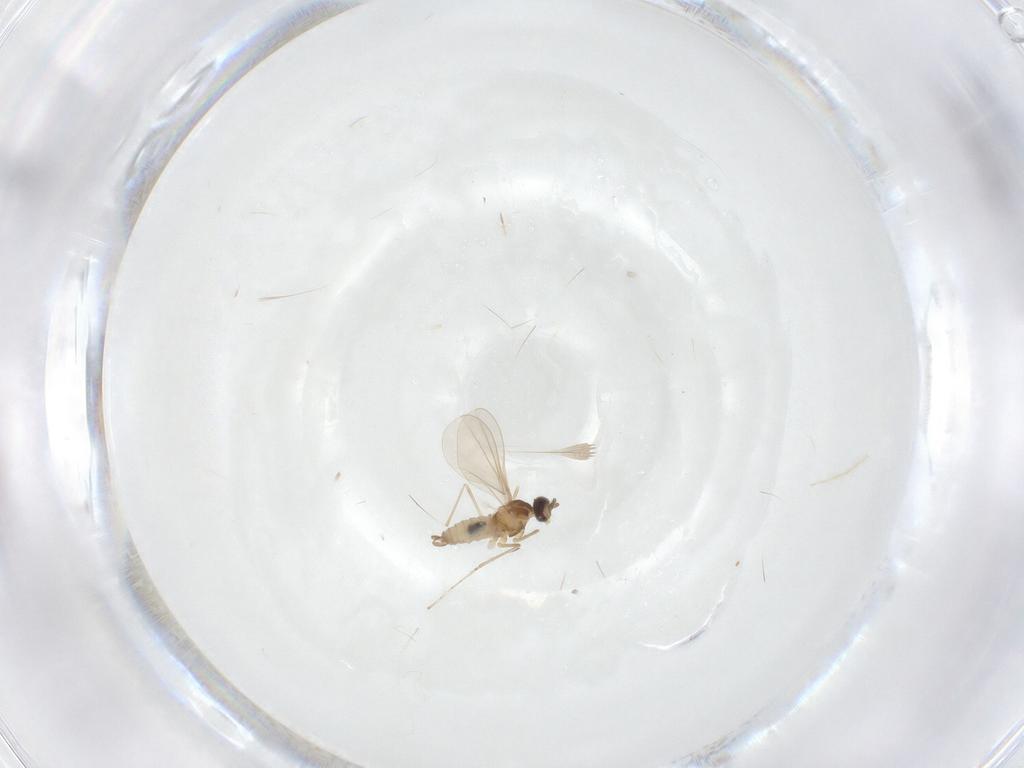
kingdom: Animalia
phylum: Arthropoda
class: Insecta
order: Diptera
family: Cecidomyiidae
